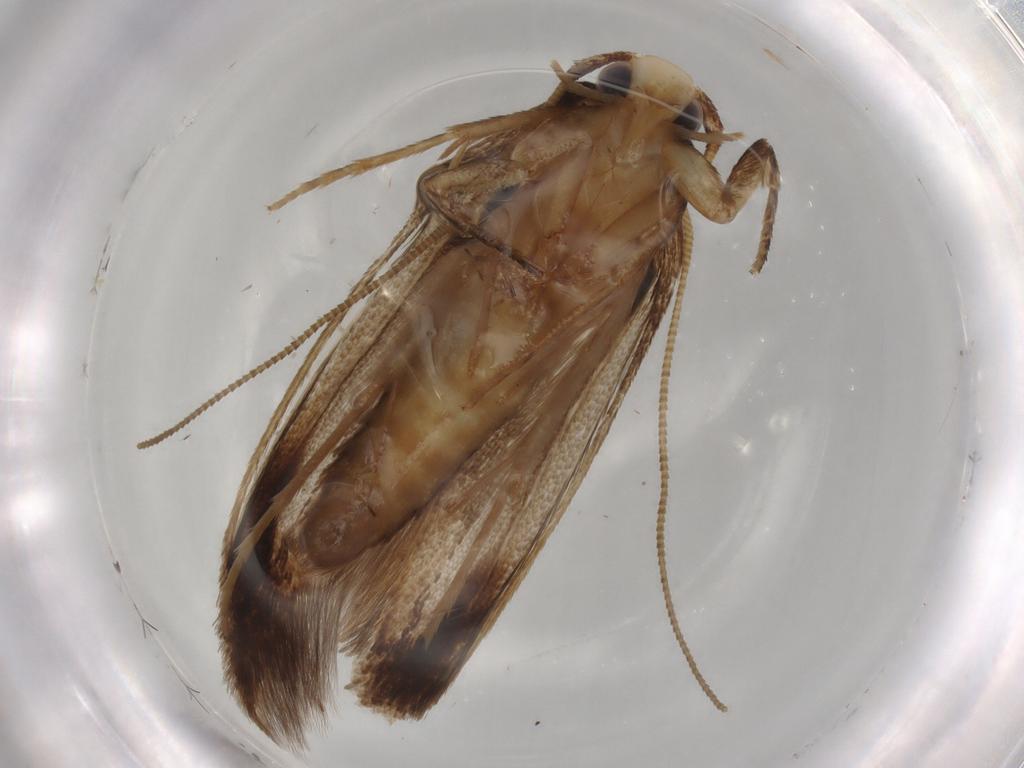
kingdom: Animalia
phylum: Arthropoda
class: Insecta
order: Lepidoptera
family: Tineidae
